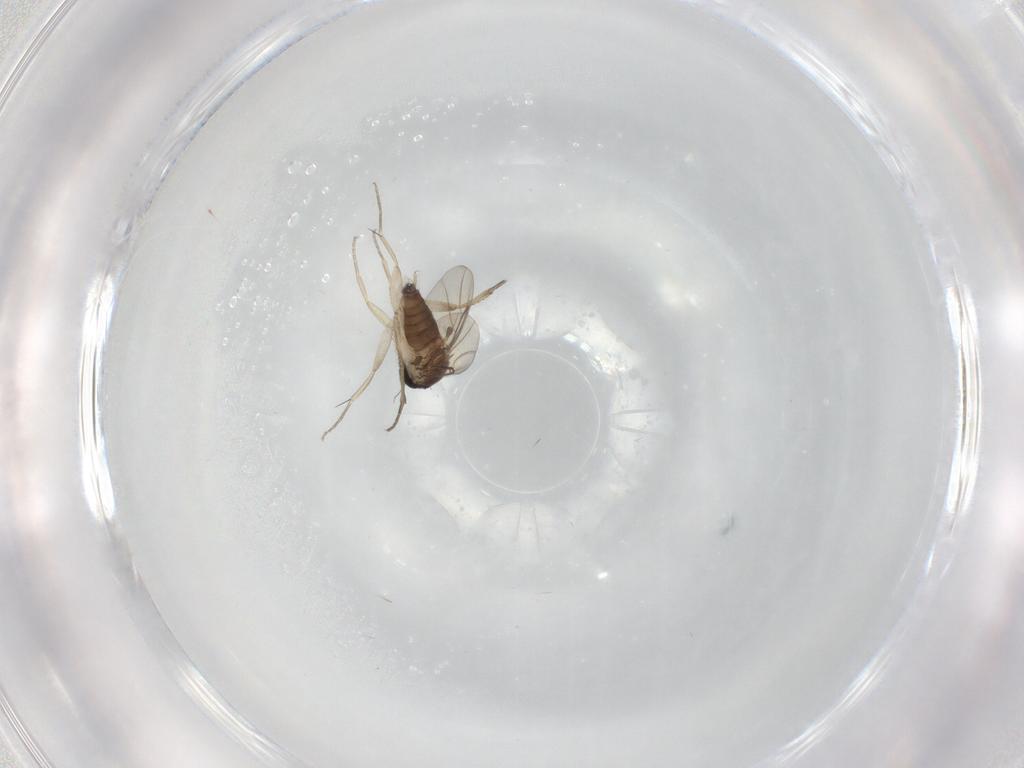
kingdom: Animalia
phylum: Arthropoda
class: Insecta
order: Diptera
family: Phoridae
